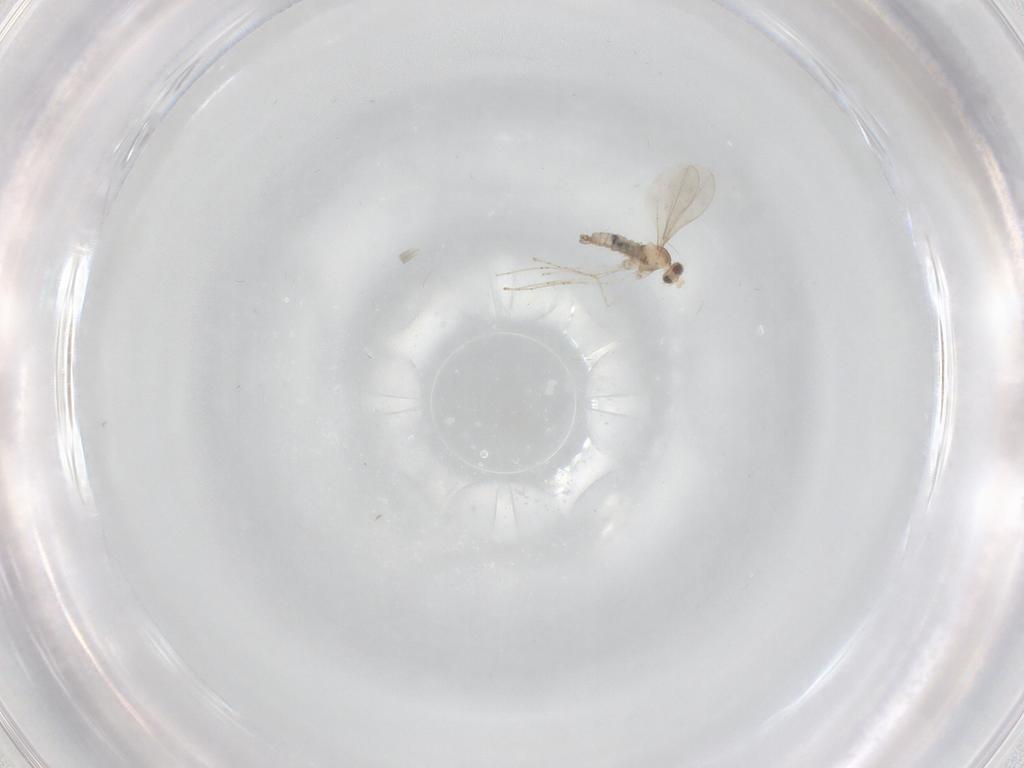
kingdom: Animalia
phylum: Arthropoda
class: Insecta
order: Diptera
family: Cecidomyiidae
